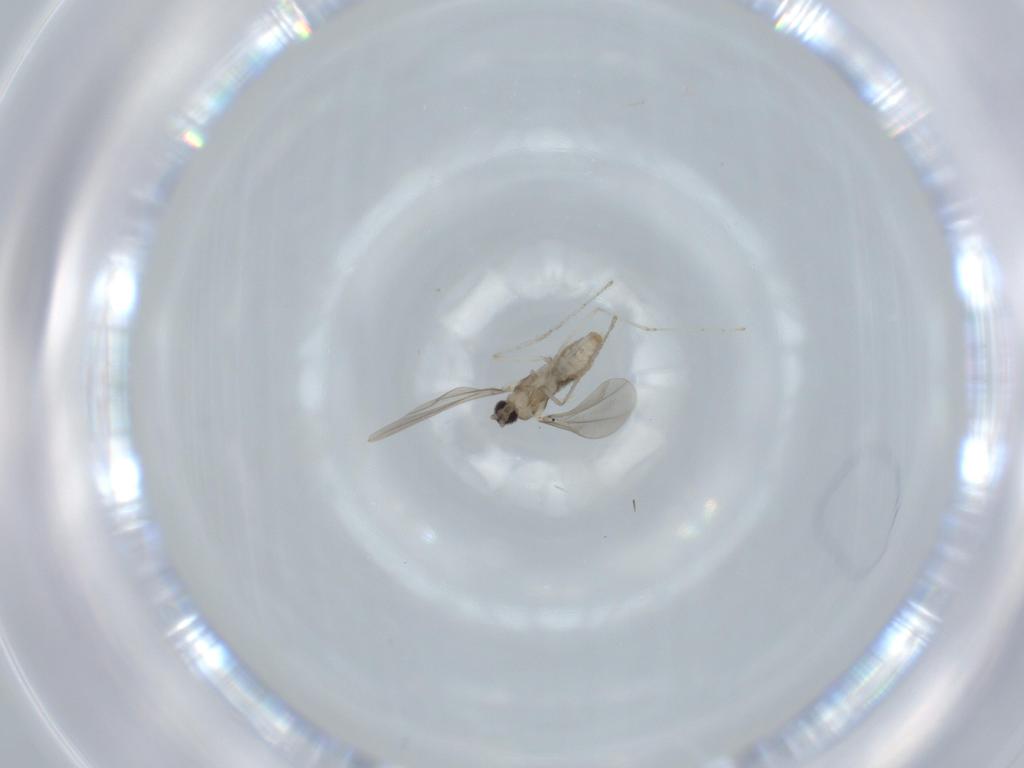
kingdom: Animalia
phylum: Arthropoda
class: Insecta
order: Diptera
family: Cecidomyiidae
